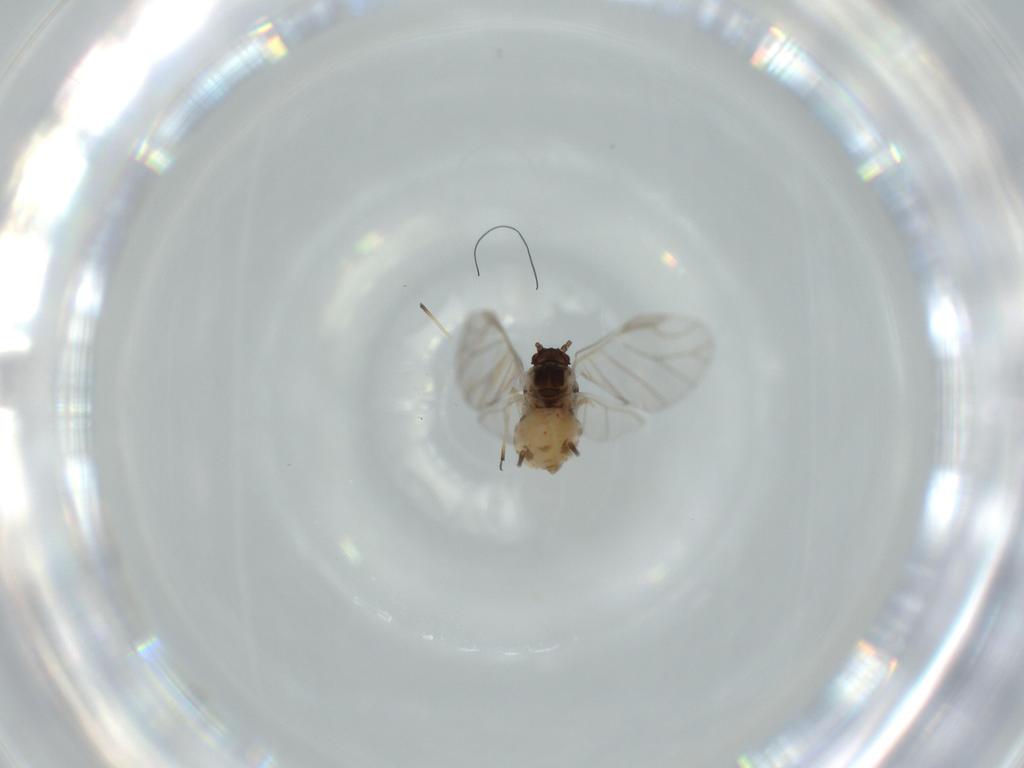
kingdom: Animalia
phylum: Arthropoda
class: Insecta
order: Hemiptera
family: Aphididae
